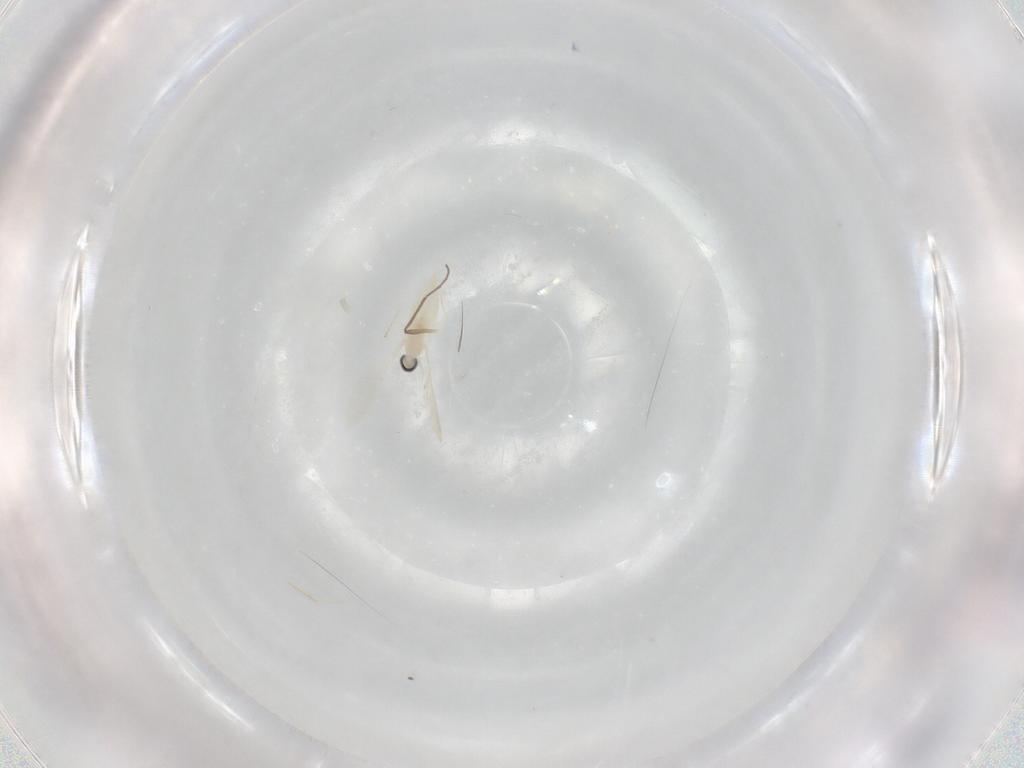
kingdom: Animalia
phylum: Arthropoda
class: Insecta
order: Diptera
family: Cecidomyiidae
